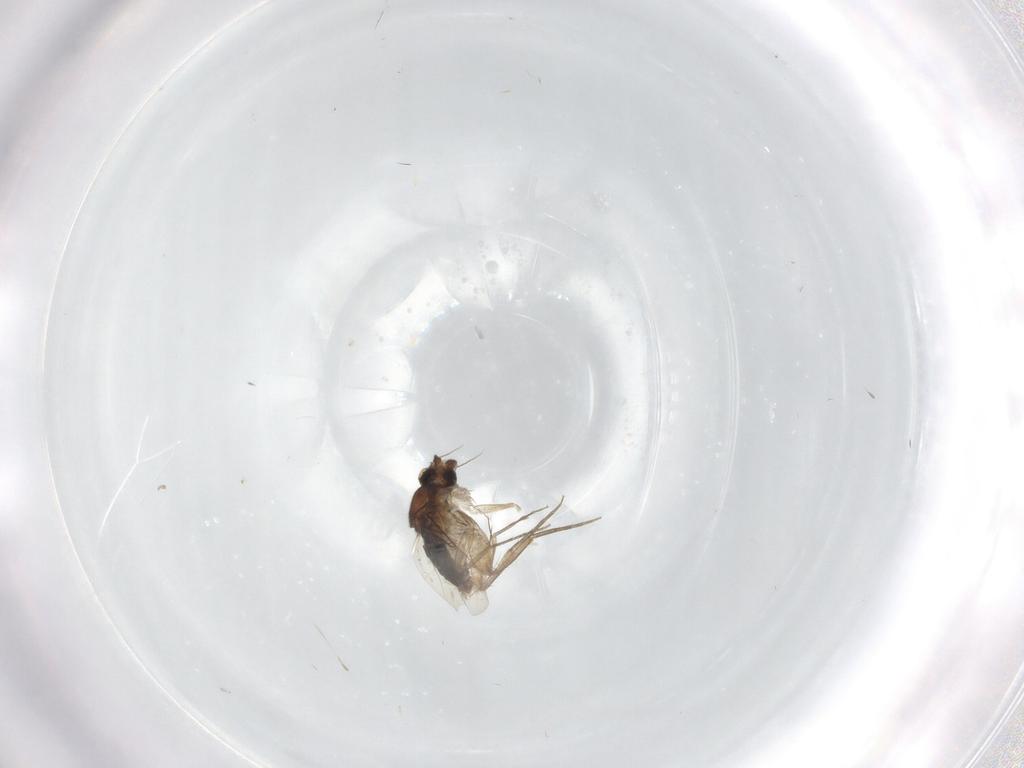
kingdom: Animalia
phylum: Arthropoda
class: Insecta
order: Diptera
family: Phoridae
